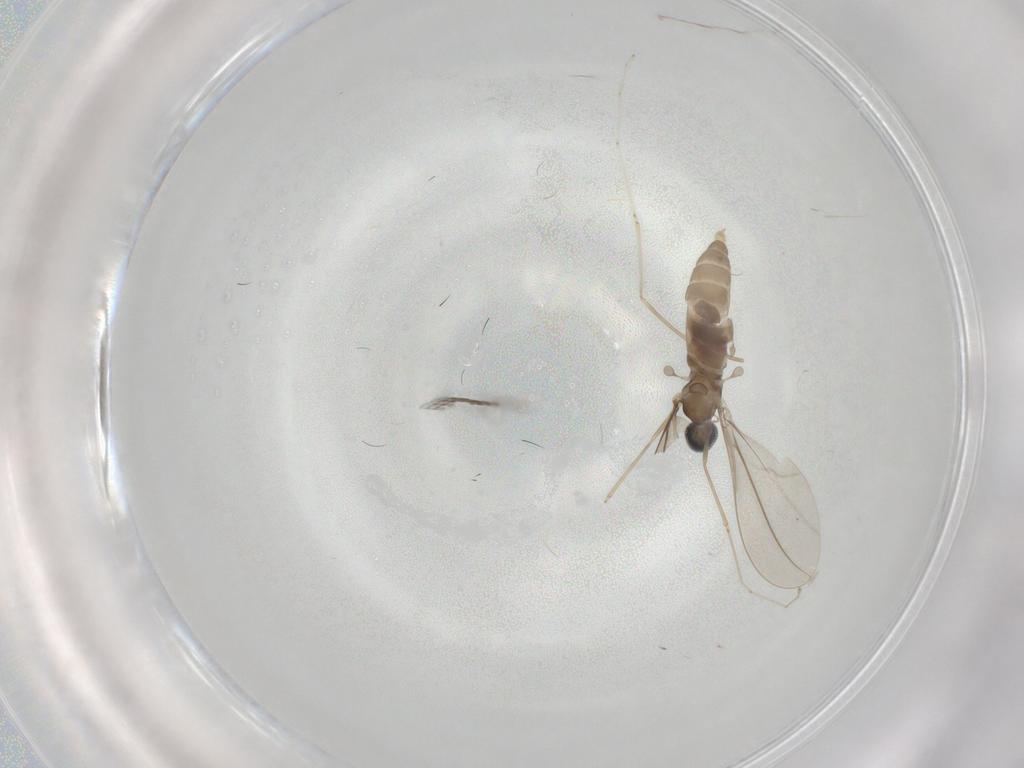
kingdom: Animalia
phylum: Arthropoda
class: Insecta
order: Diptera
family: Cecidomyiidae
